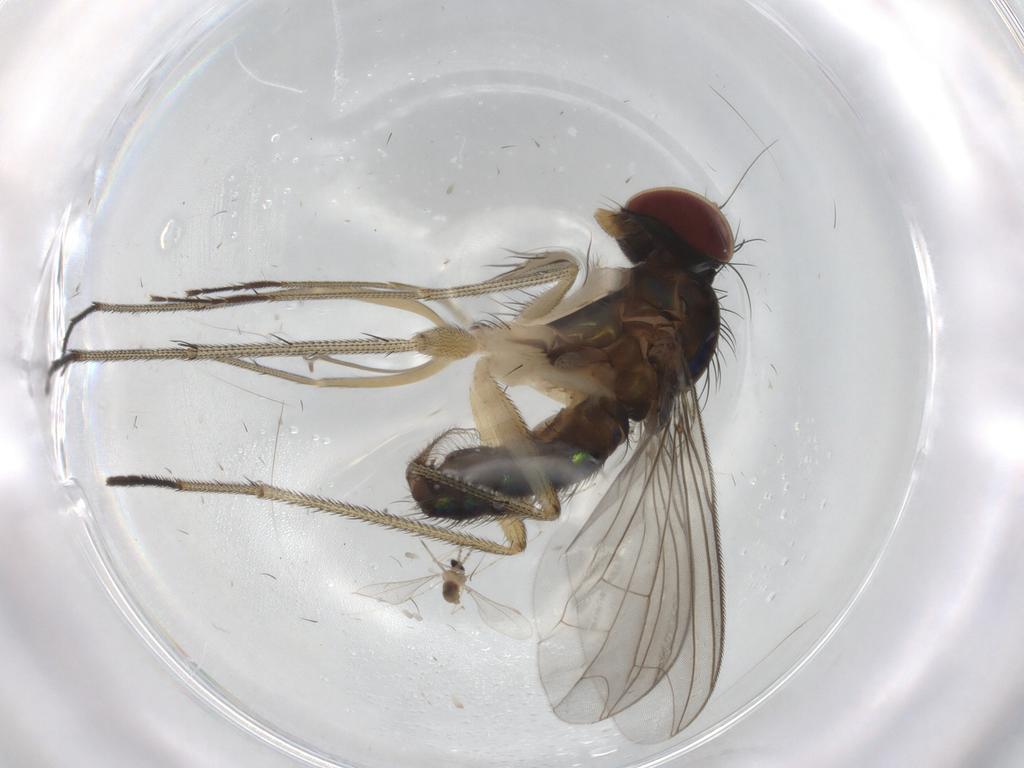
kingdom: Animalia
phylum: Arthropoda
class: Insecta
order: Diptera
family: Dolichopodidae
